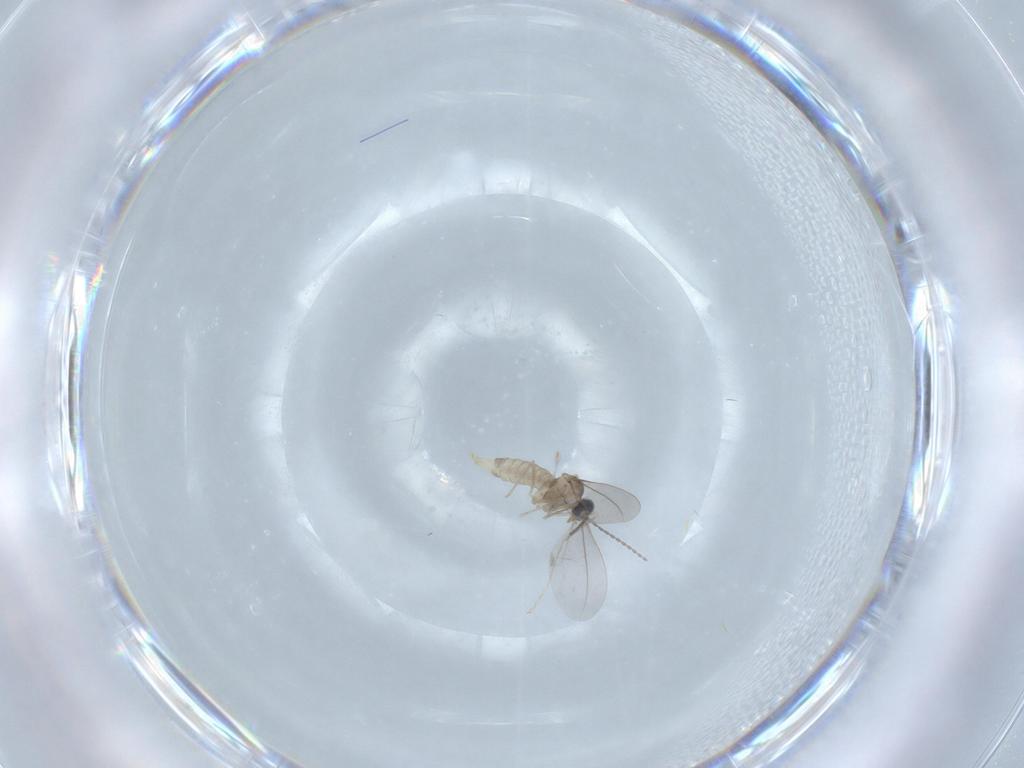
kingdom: Animalia
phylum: Arthropoda
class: Insecta
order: Diptera
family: Cecidomyiidae
